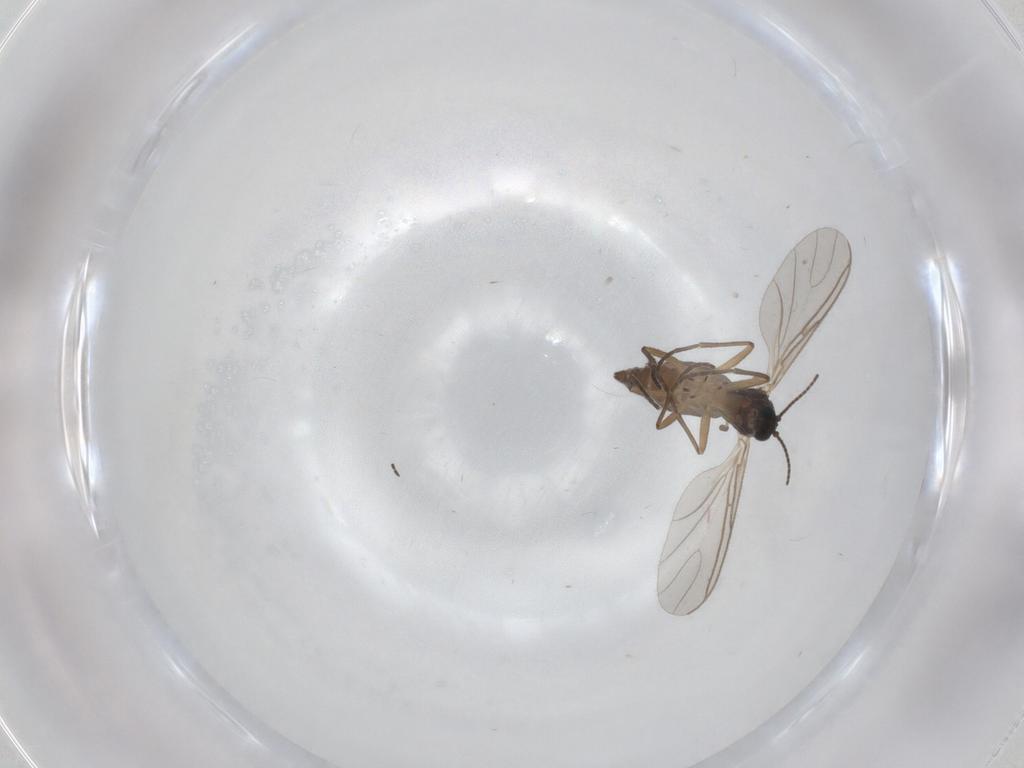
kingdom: Animalia
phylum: Arthropoda
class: Insecta
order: Diptera
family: Sciaridae
